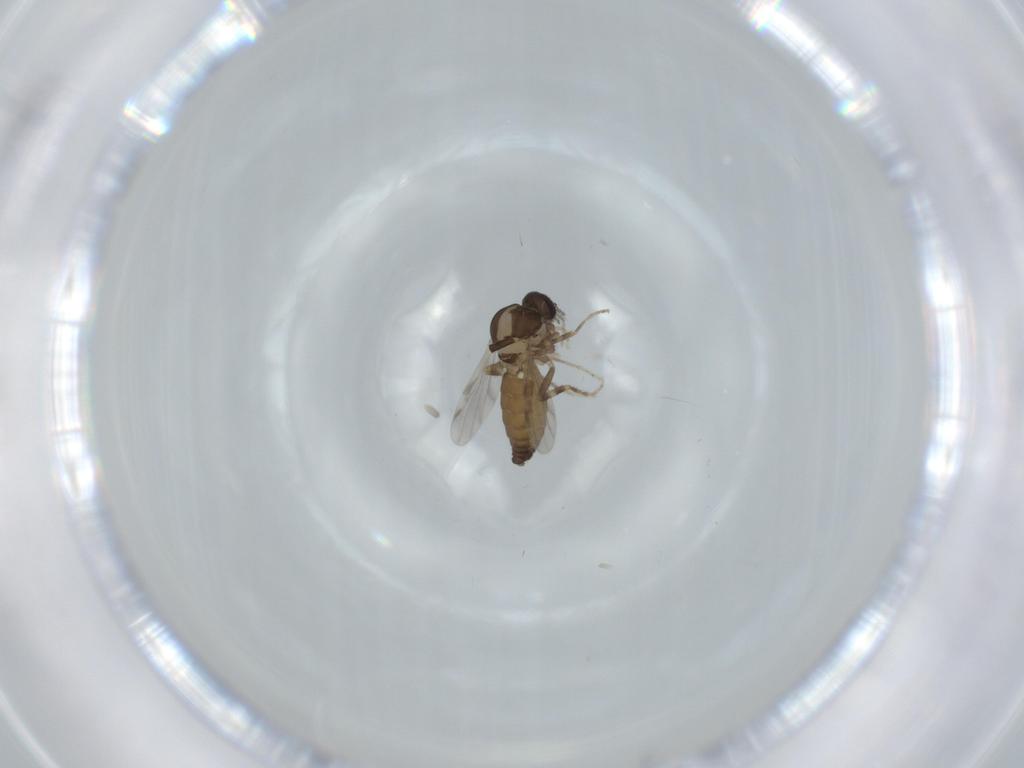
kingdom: Animalia
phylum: Arthropoda
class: Insecta
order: Diptera
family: Ceratopogonidae
